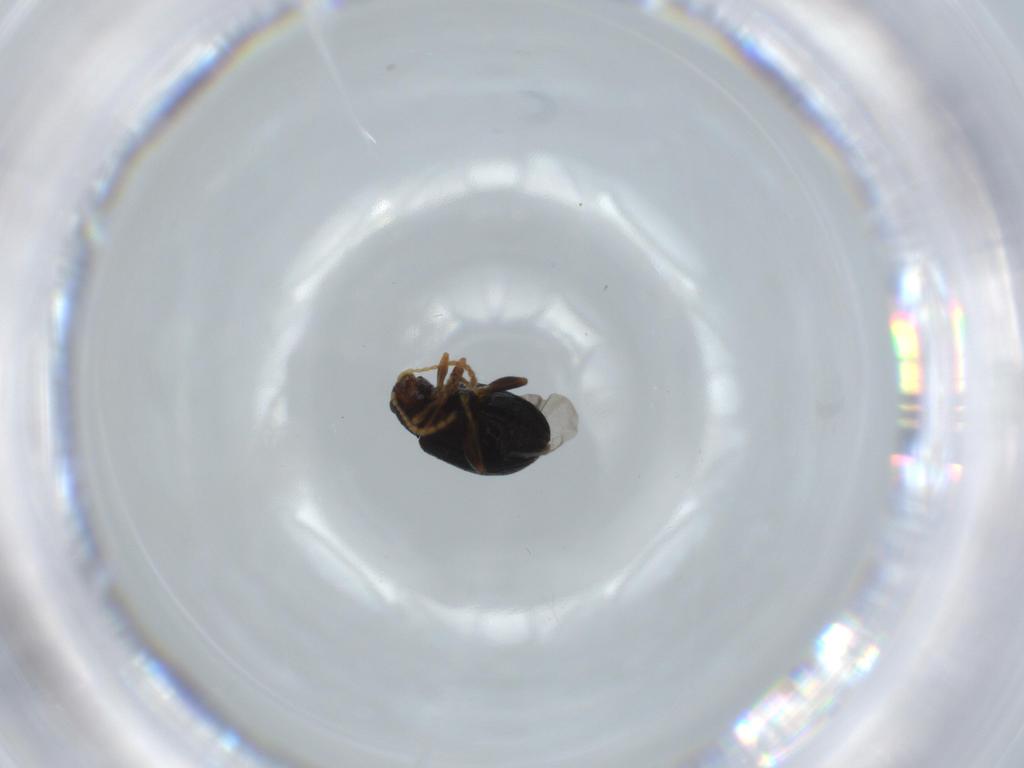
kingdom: Animalia
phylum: Arthropoda
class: Insecta
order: Coleoptera
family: Chrysomelidae
